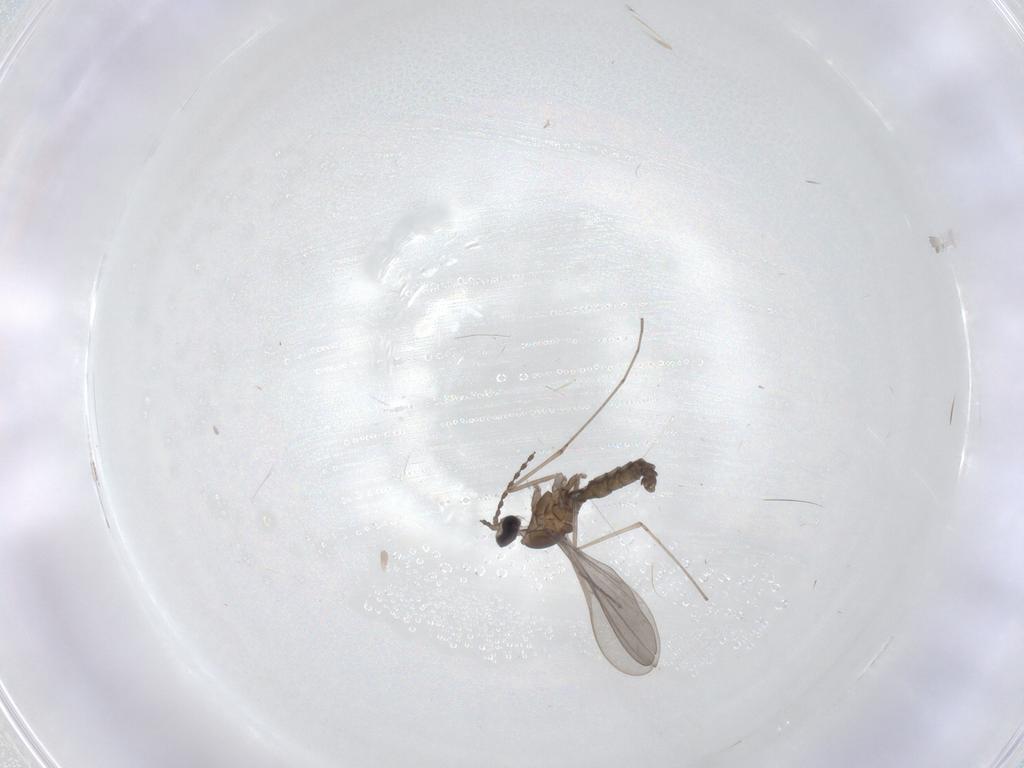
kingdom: Animalia
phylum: Arthropoda
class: Insecta
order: Diptera
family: Cecidomyiidae
